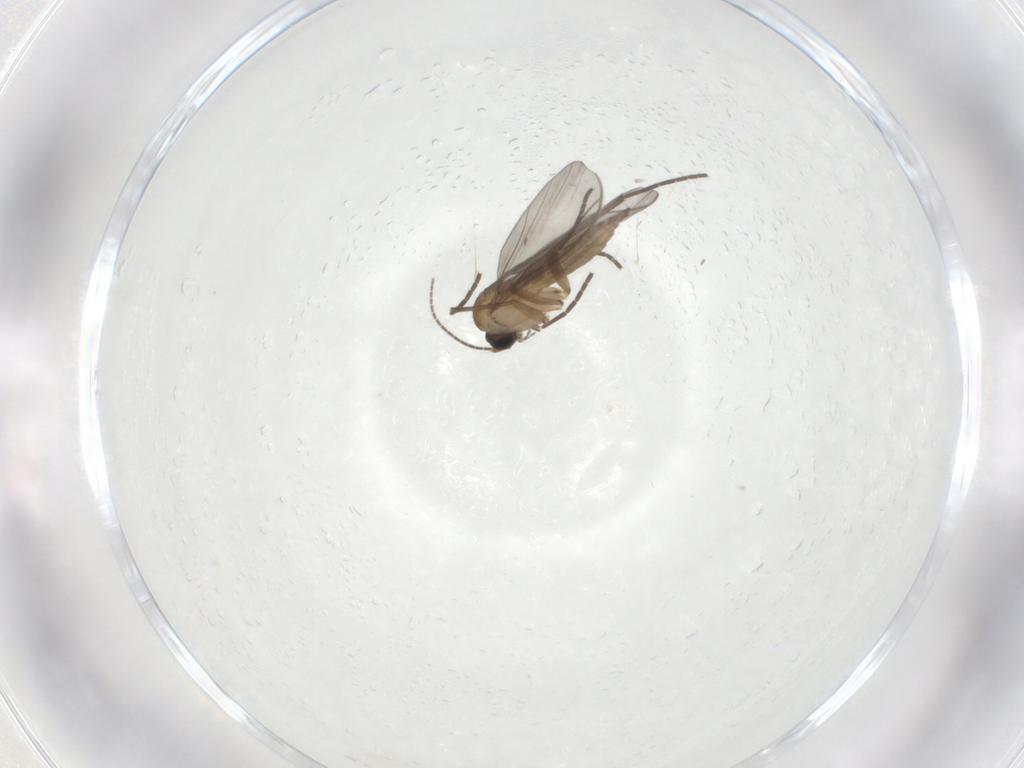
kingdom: Animalia
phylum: Arthropoda
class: Insecta
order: Diptera
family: Sciaridae
